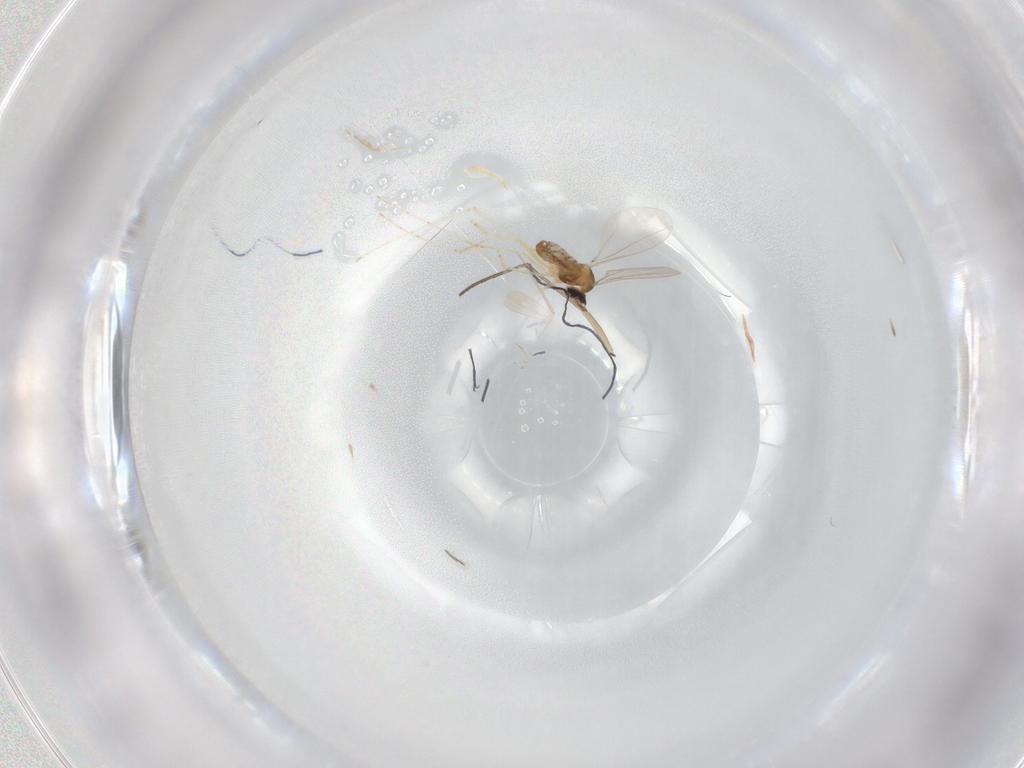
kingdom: Animalia
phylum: Arthropoda
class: Insecta
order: Diptera
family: Cecidomyiidae
